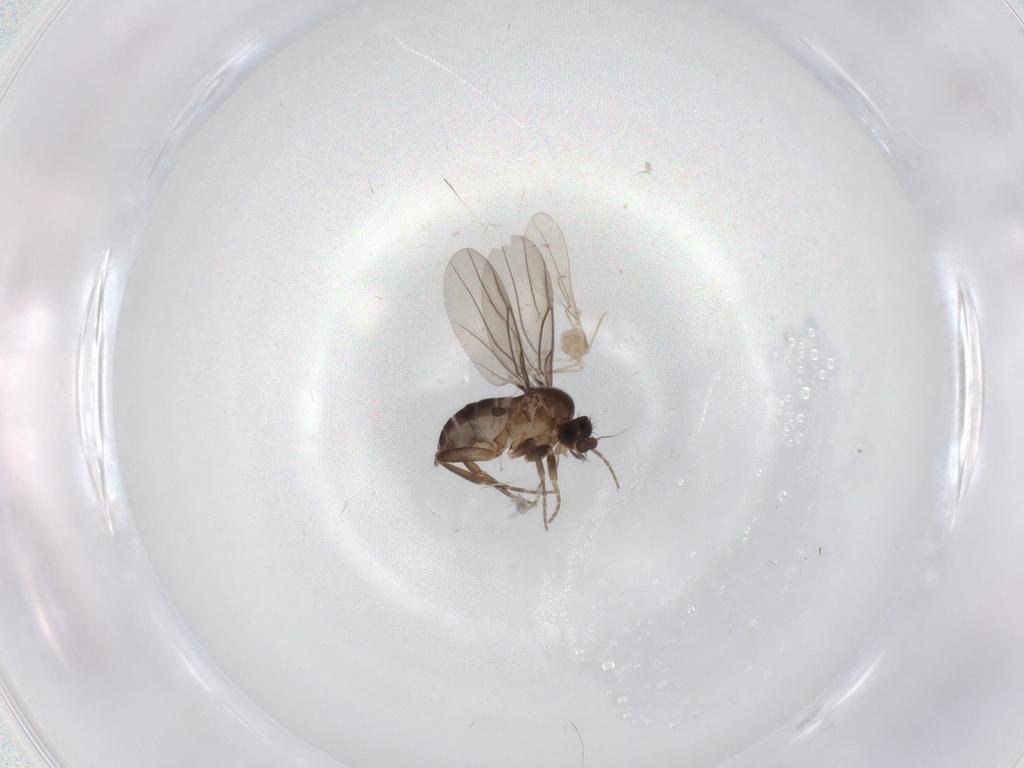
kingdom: Animalia
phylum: Arthropoda
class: Insecta
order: Diptera
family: Cecidomyiidae
